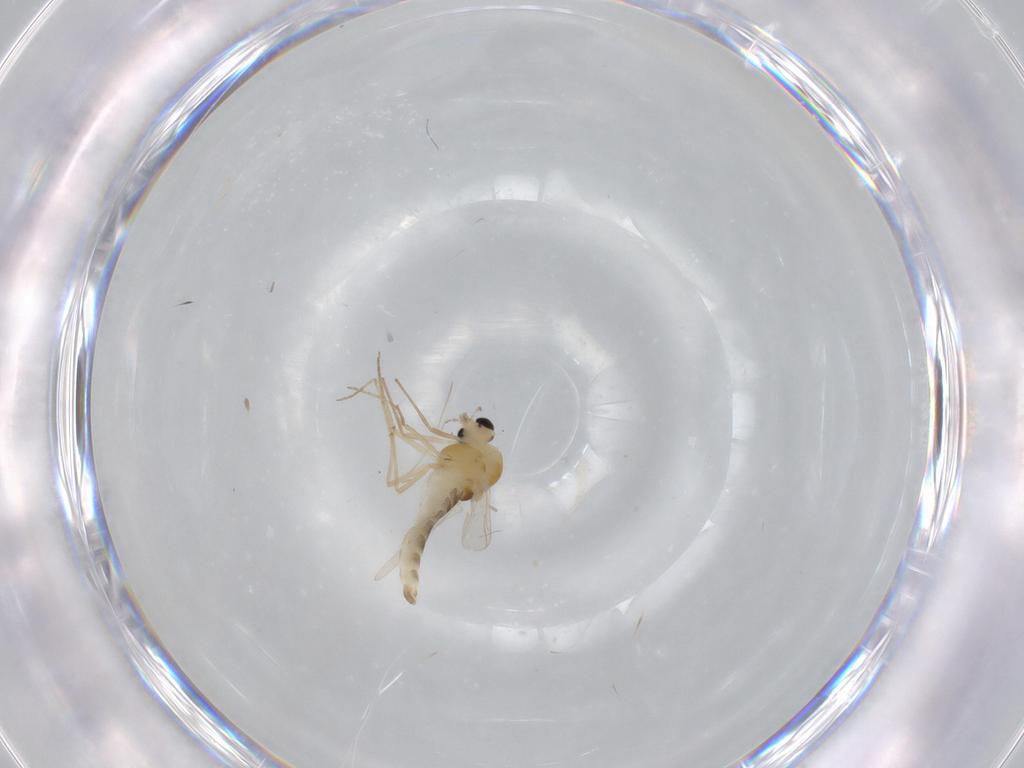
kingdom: Animalia
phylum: Arthropoda
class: Insecta
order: Diptera
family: Chironomidae
